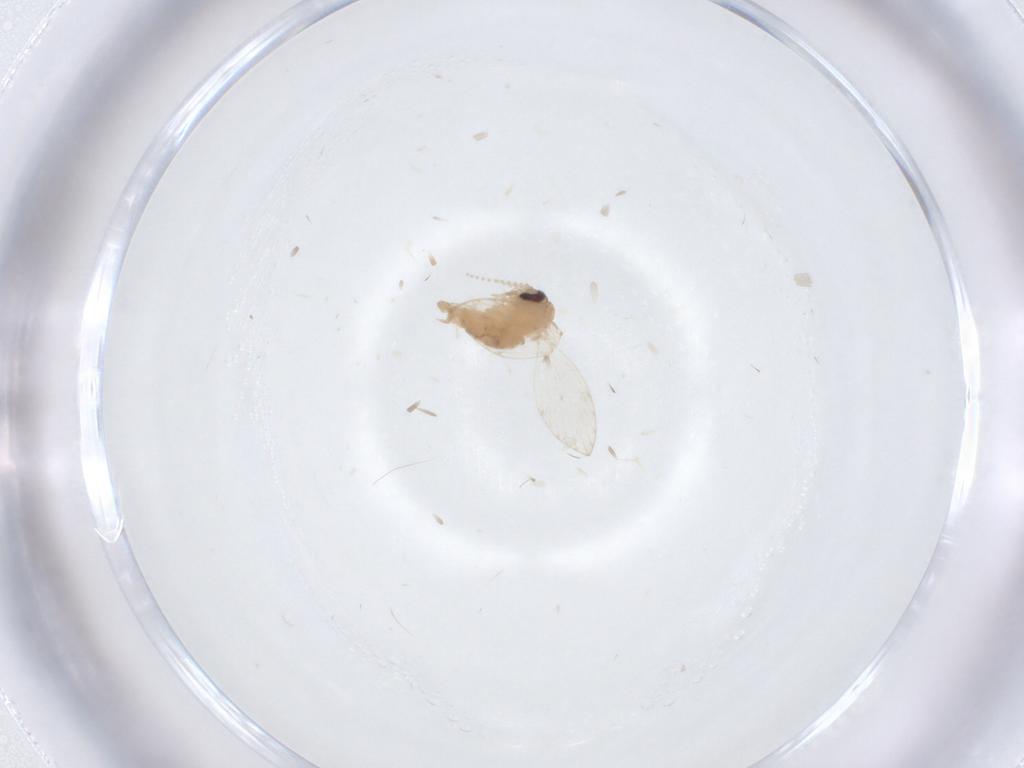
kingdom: Animalia
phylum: Arthropoda
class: Insecta
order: Diptera
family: Psychodidae
